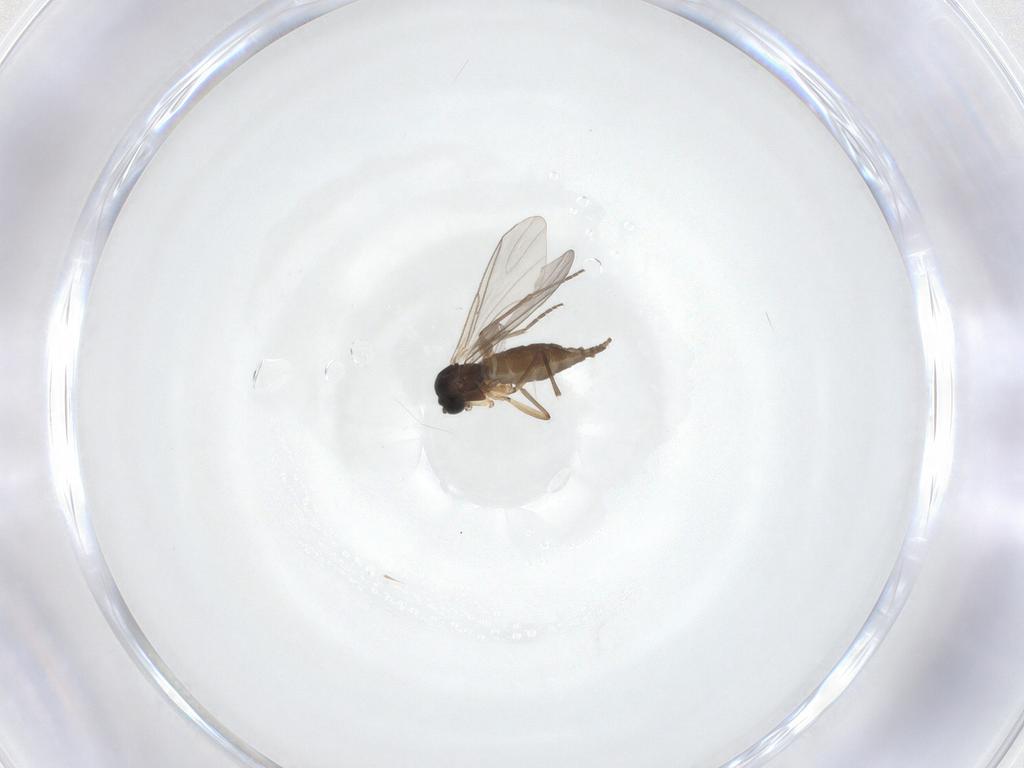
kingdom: Animalia
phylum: Arthropoda
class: Insecta
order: Diptera
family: Sciaridae
